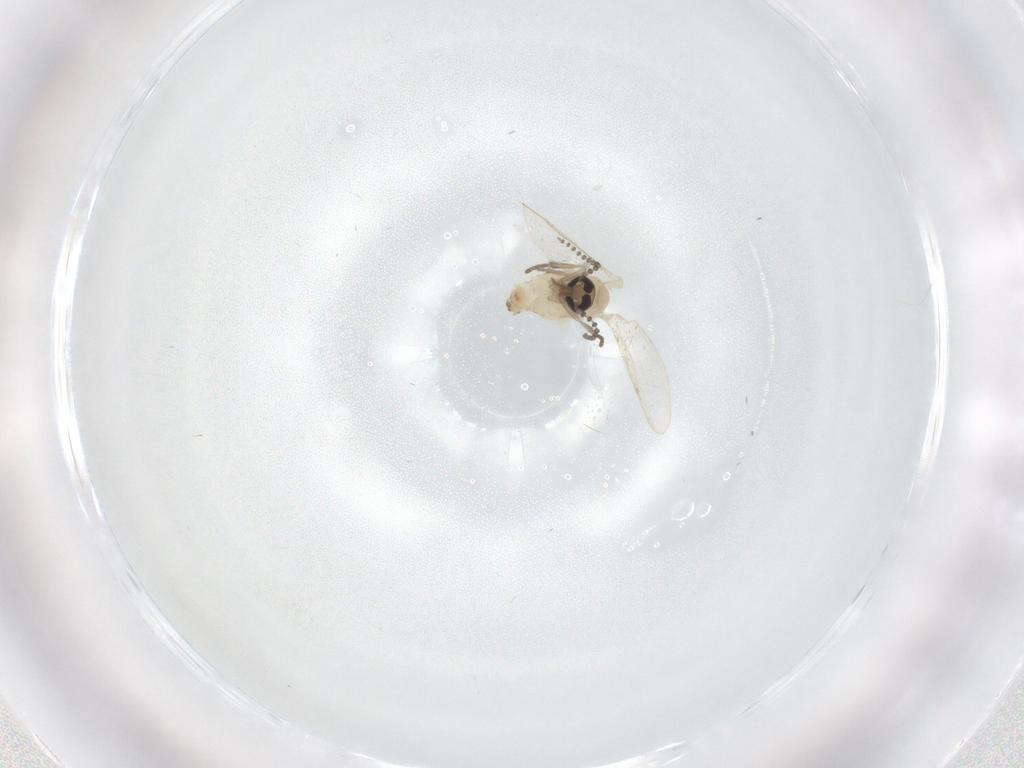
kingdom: Animalia
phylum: Arthropoda
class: Insecta
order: Diptera
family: Psychodidae
